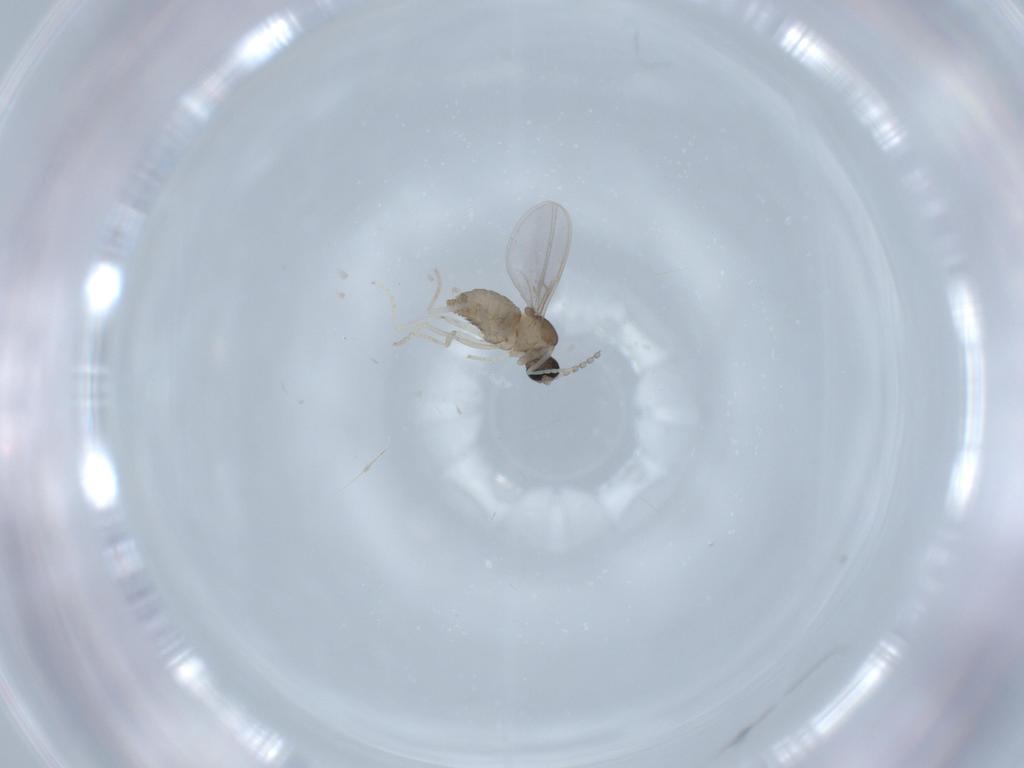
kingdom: Animalia
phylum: Arthropoda
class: Insecta
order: Diptera
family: Cecidomyiidae
